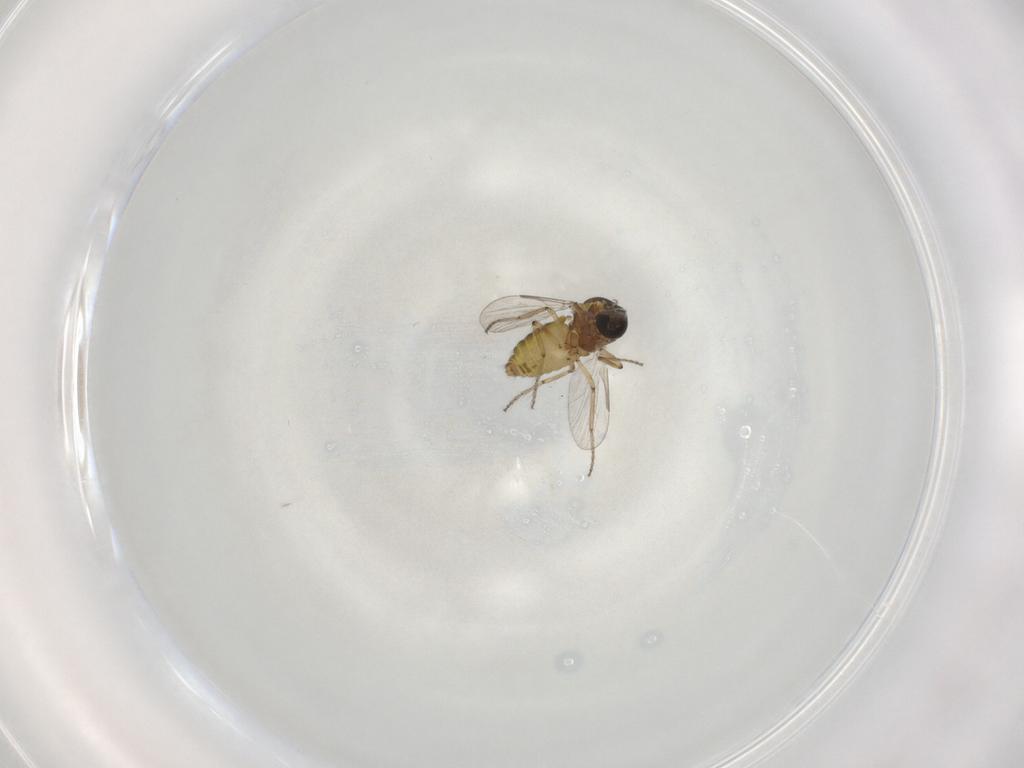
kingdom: Animalia
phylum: Arthropoda
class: Insecta
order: Diptera
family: Ceratopogonidae
